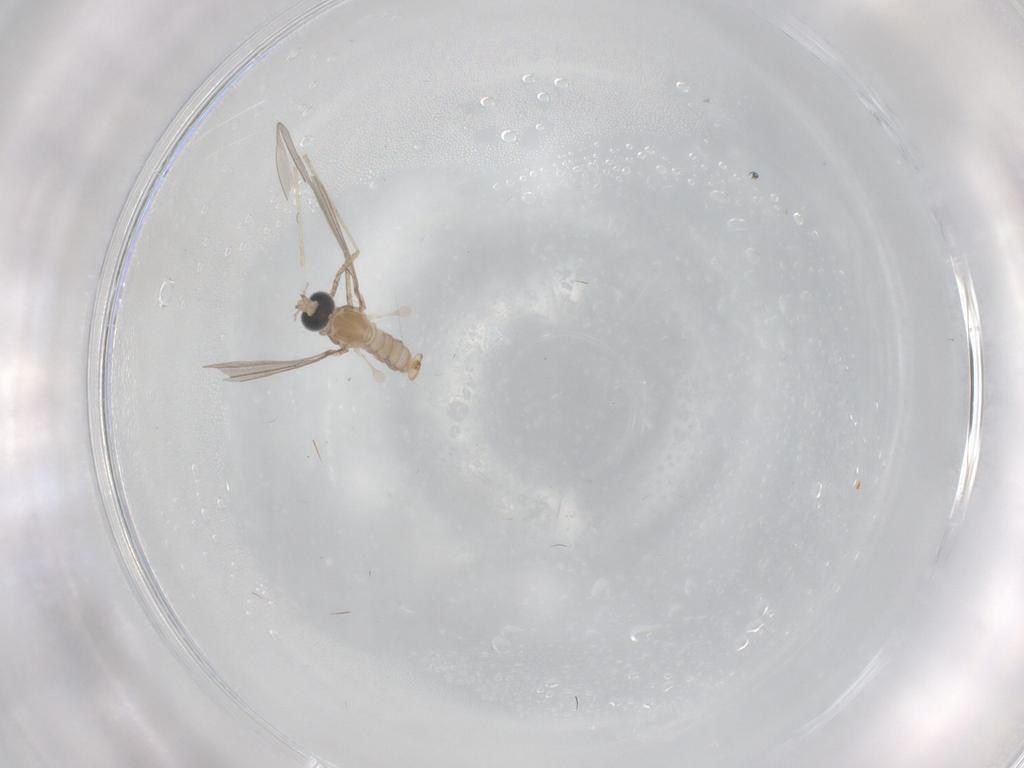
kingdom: Animalia
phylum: Arthropoda
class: Insecta
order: Diptera
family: Cecidomyiidae
